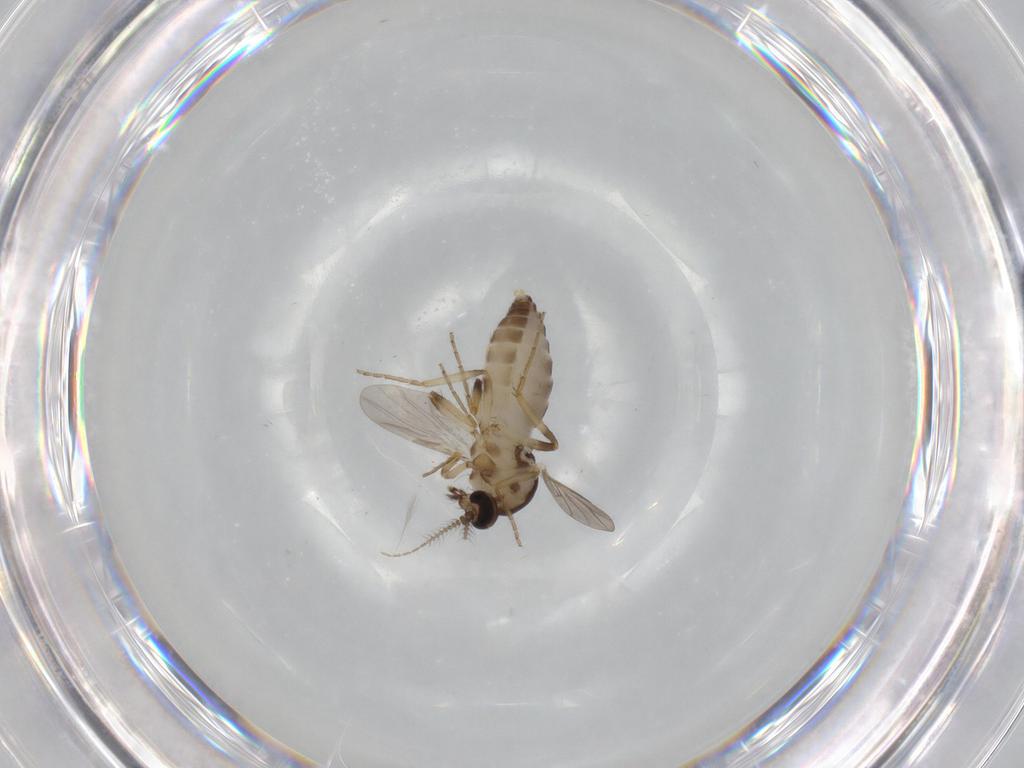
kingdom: Animalia
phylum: Arthropoda
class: Insecta
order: Diptera
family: Ceratopogonidae
